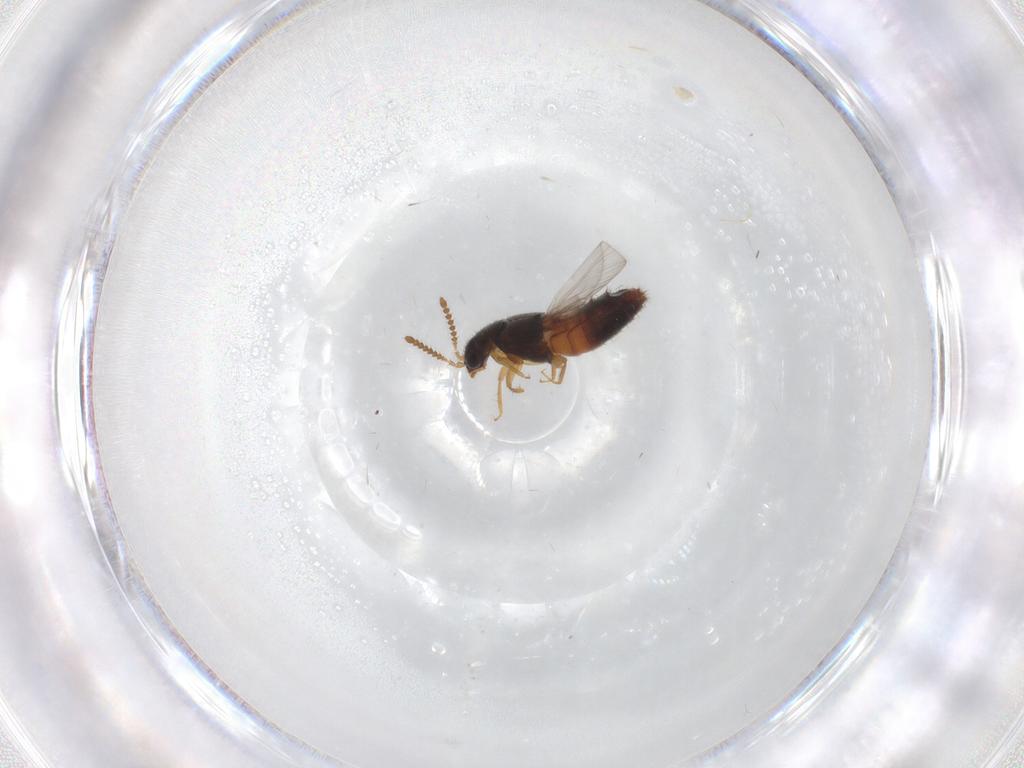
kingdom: Animalia
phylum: Arthropoda
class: Insecta
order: Coleoptera
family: Staphylinidae
